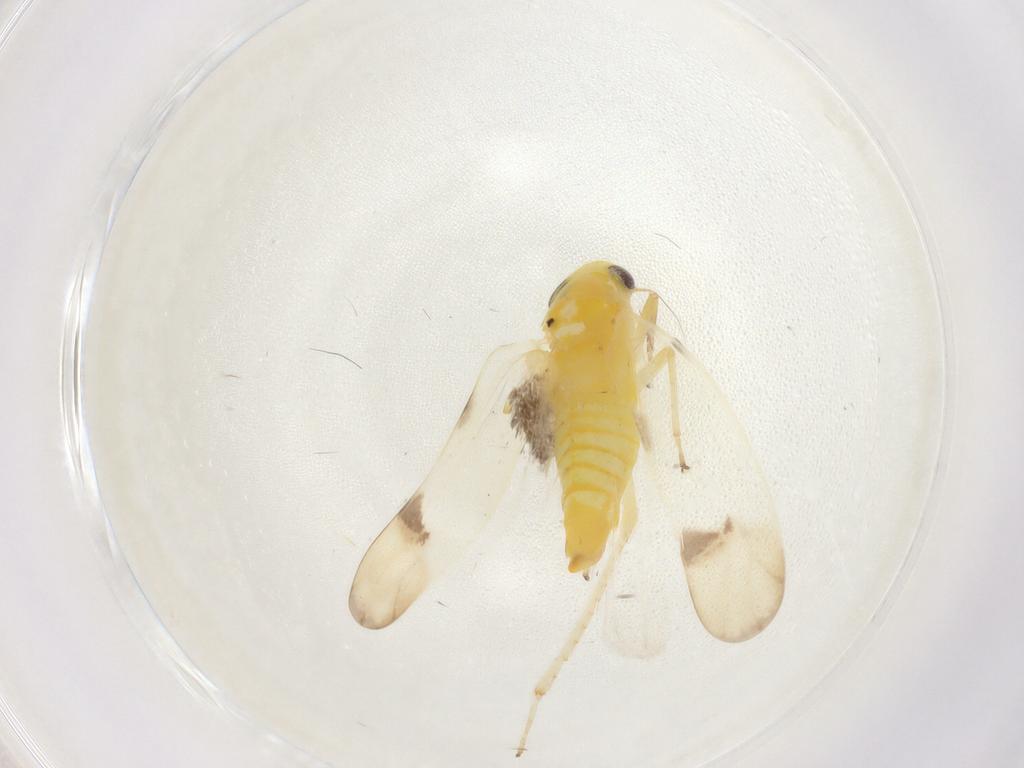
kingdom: Animalia
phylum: Arthropoda
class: Insecta
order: Hemiptera
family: Cicadellidae
